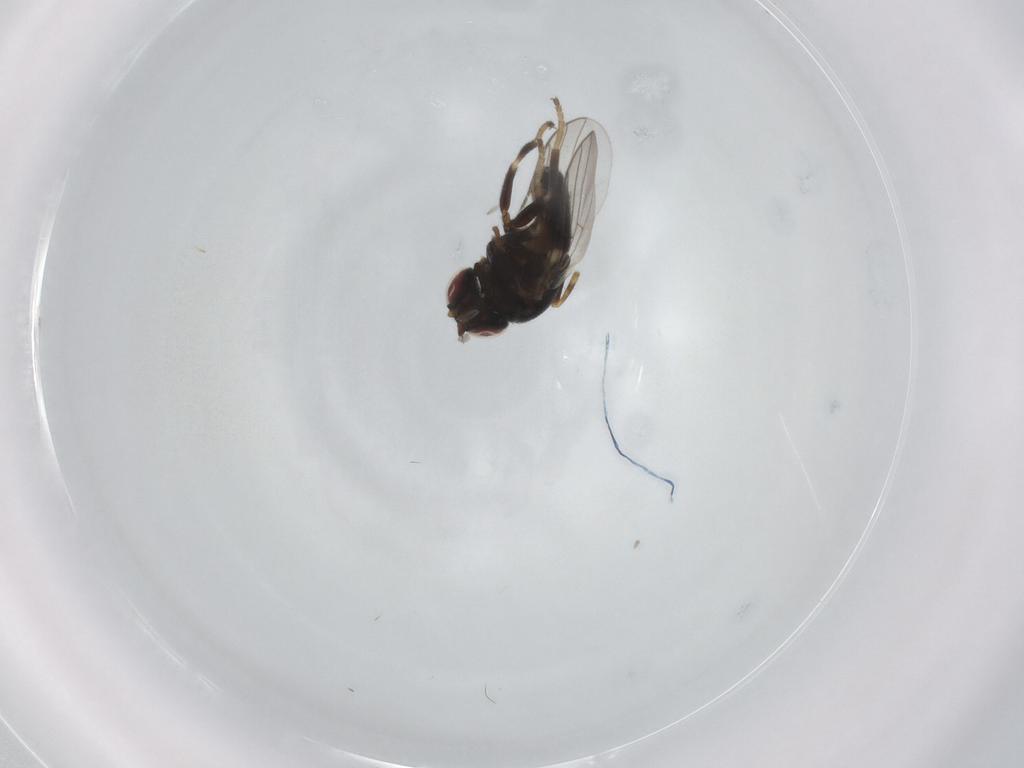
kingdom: Animalia
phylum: Arthropoda
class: Insecta
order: Diptera
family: Chloropidae
